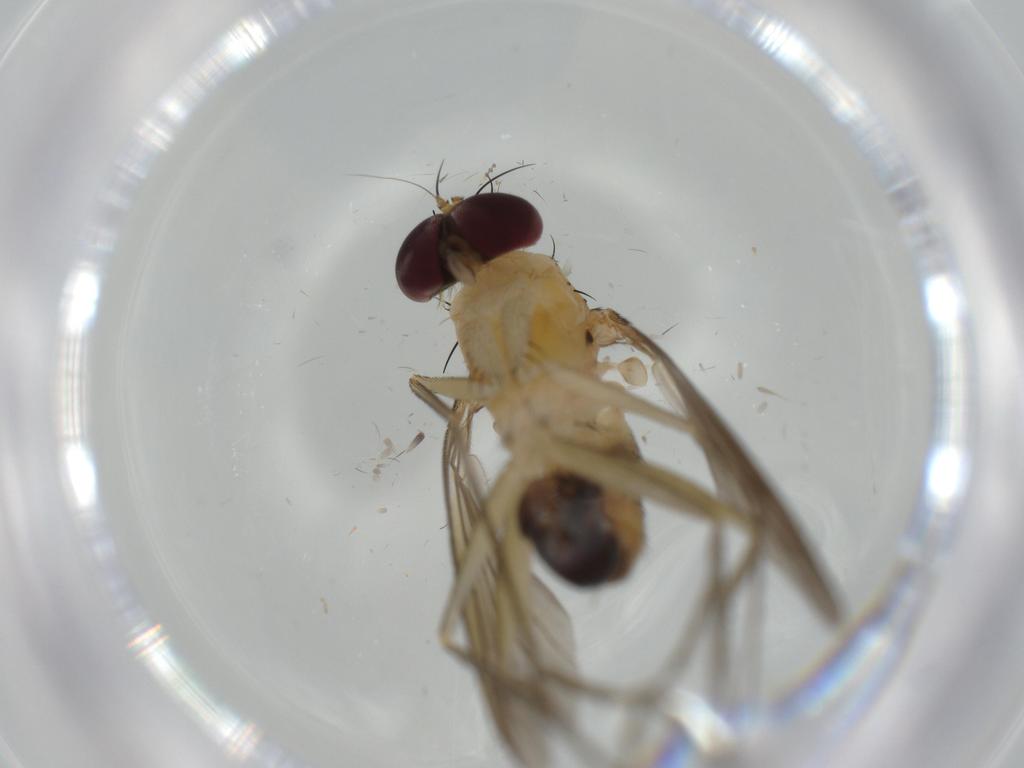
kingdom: Animalia
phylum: Arthropoda
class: Insecta
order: Diptera
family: Dolichopodidae
